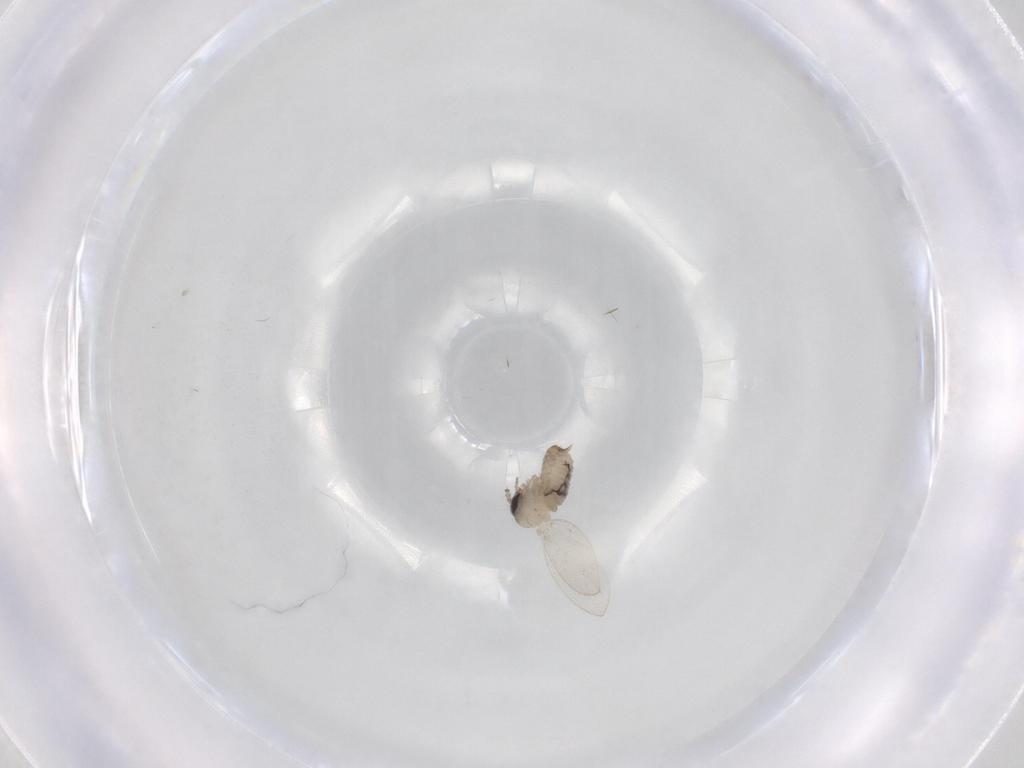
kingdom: Animalia
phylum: Arthropoda
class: Insecta
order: Diptera
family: Psychodidae
